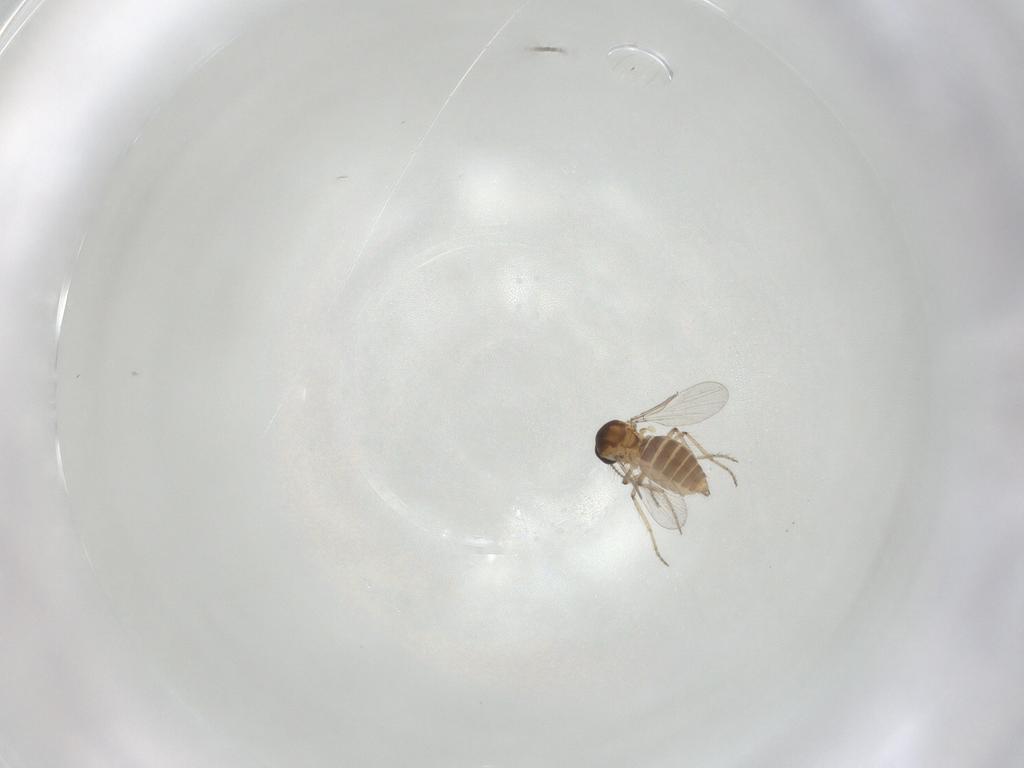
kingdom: Animalia
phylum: Arthropoda
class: Insecta
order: Diptera
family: Ceratopogonidae
